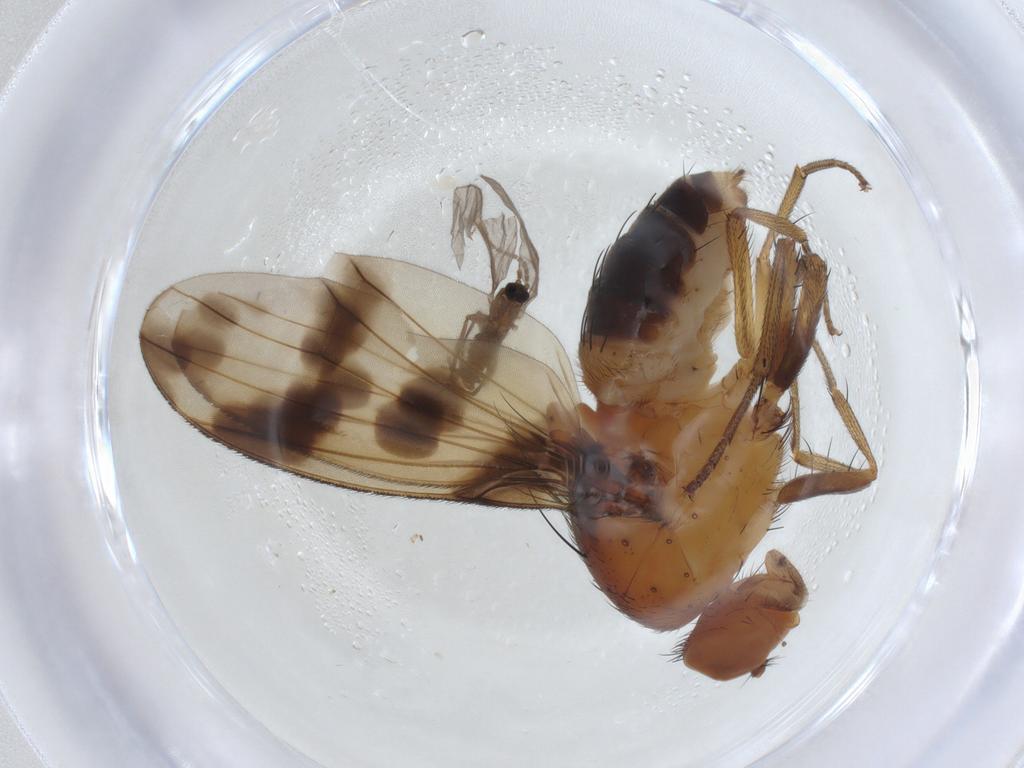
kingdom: Animalia
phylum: Arthropoda
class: Insecta
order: Diptera
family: Lauxaniidae
